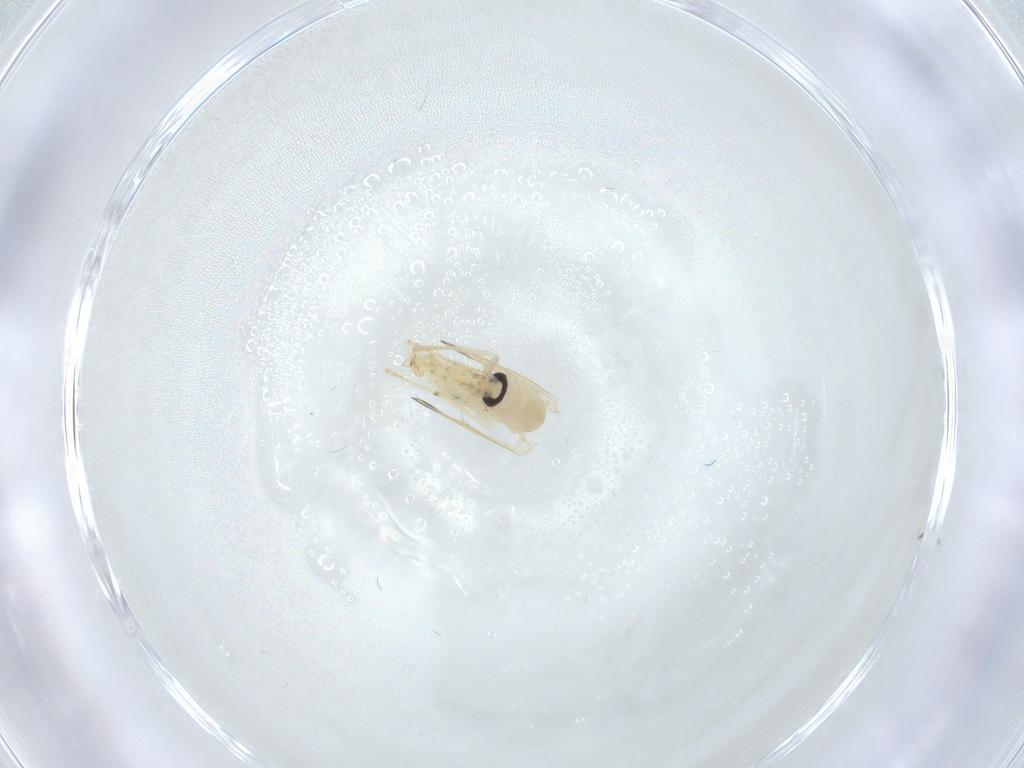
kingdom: Animalia
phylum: Arthropoda
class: Insecta
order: Diptera
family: Psychodidae
